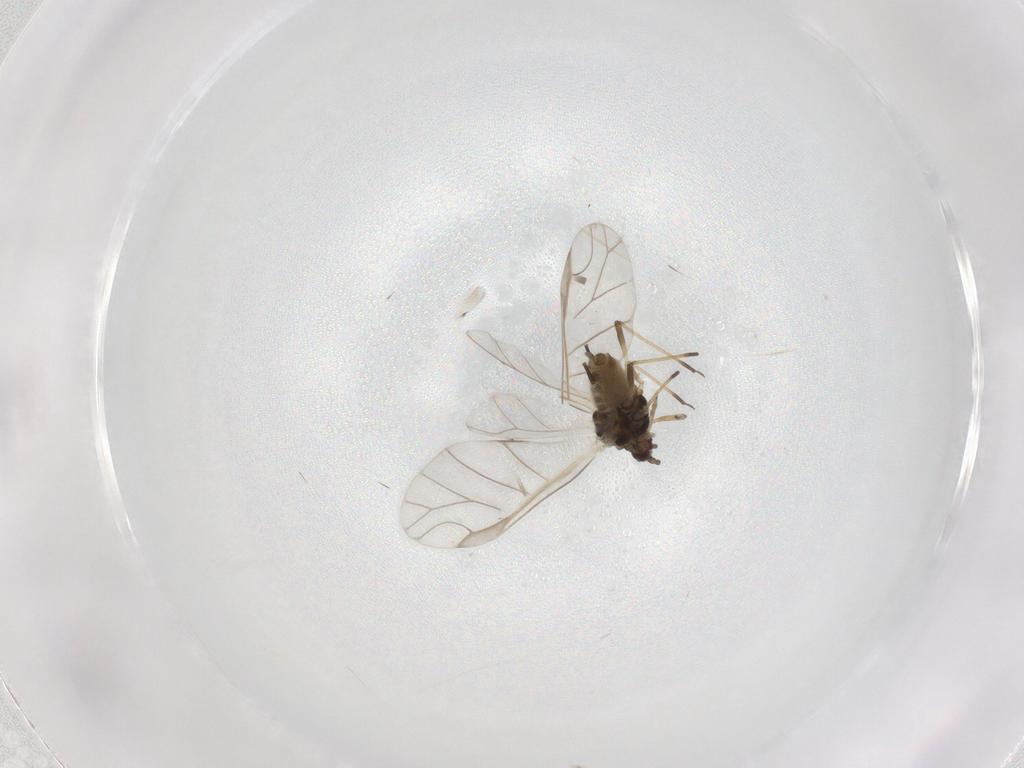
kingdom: Animalia
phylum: Arthropoda
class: Insecta
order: Hemiptera
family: Aphididae
